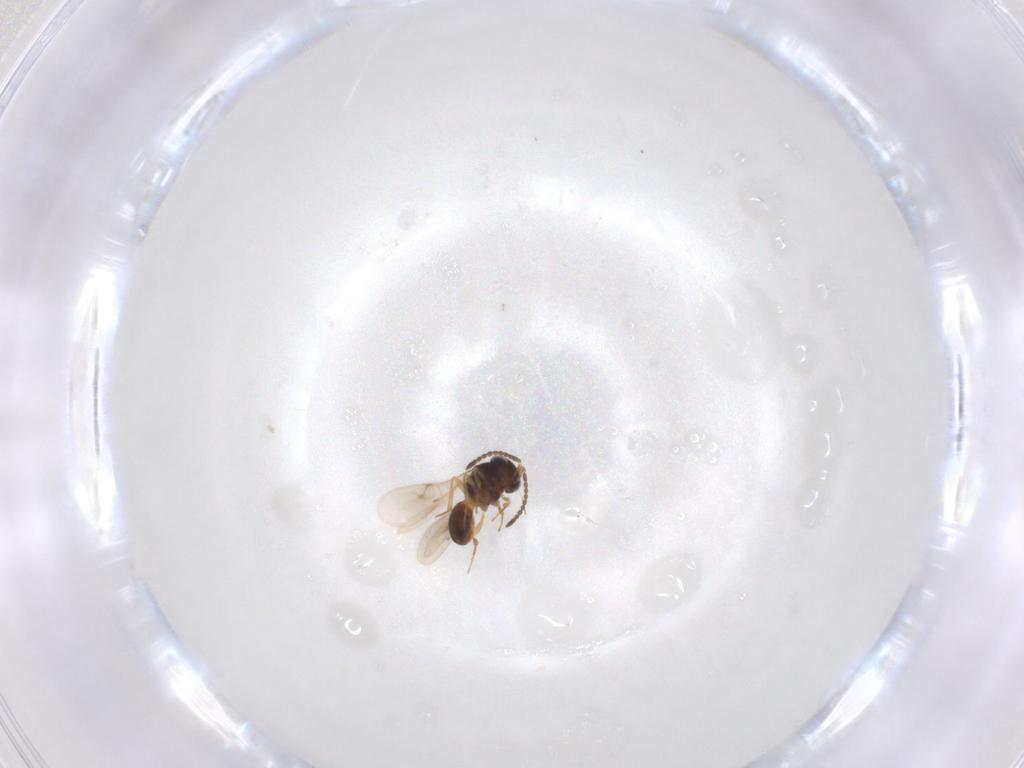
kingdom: Animalia
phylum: Arthropoda
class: Insecta
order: Hymenoptera
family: Scelionidae
